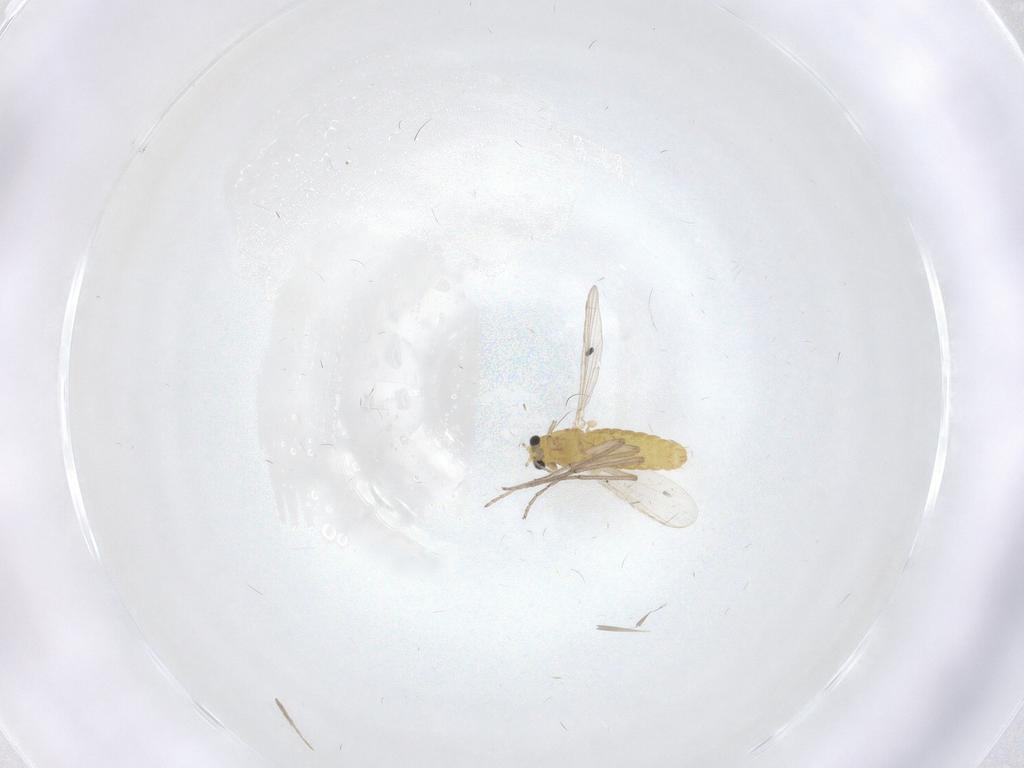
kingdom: Animalia
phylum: Arthropoda
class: Insecta
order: Diptera
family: Chironomidae
